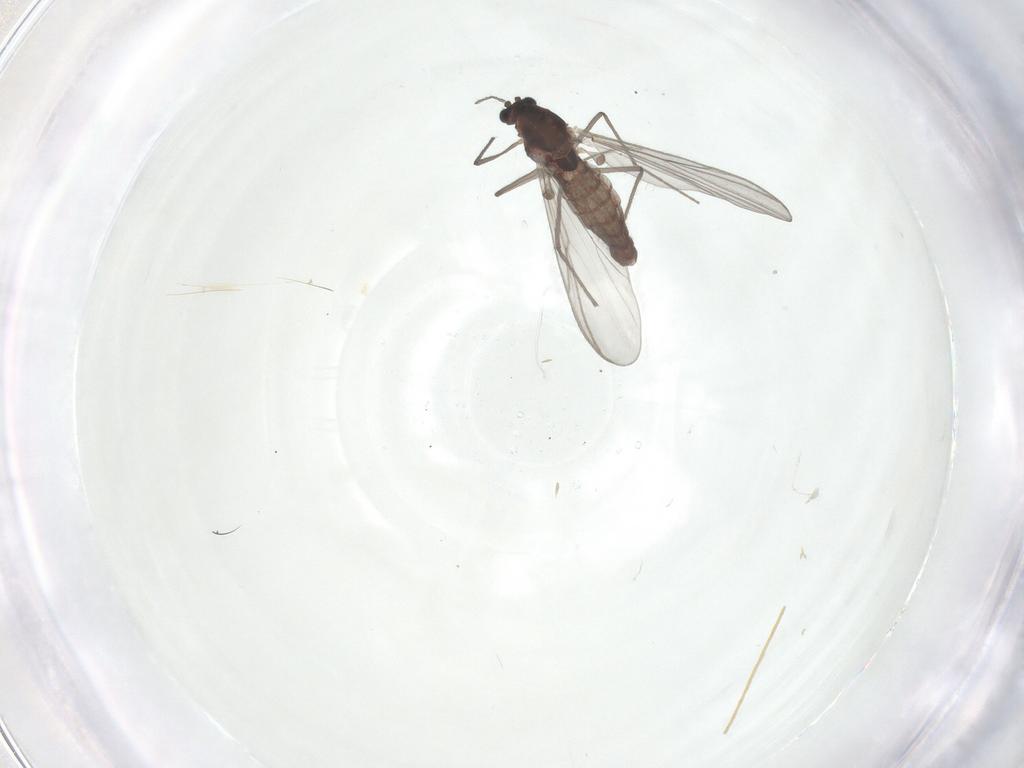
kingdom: Animalia
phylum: Arthropoda
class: Insecta
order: Diptera
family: Chironomidae
